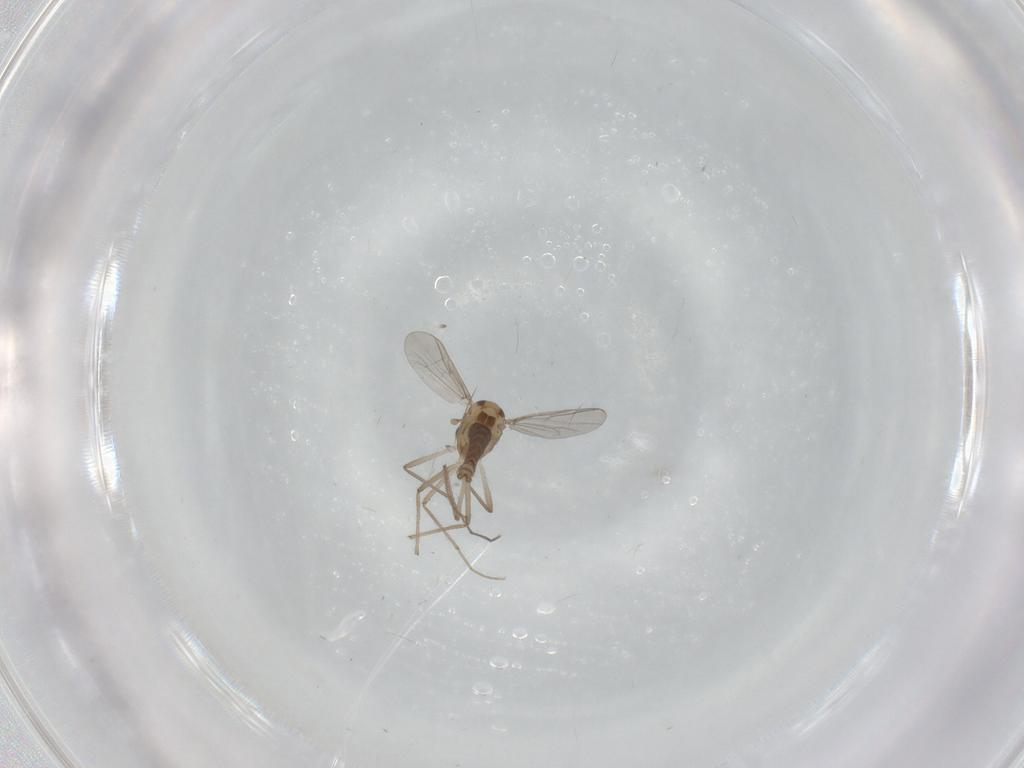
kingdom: Animalia
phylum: Arthropoda
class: Insecta
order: Diptera
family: Chironomidae
